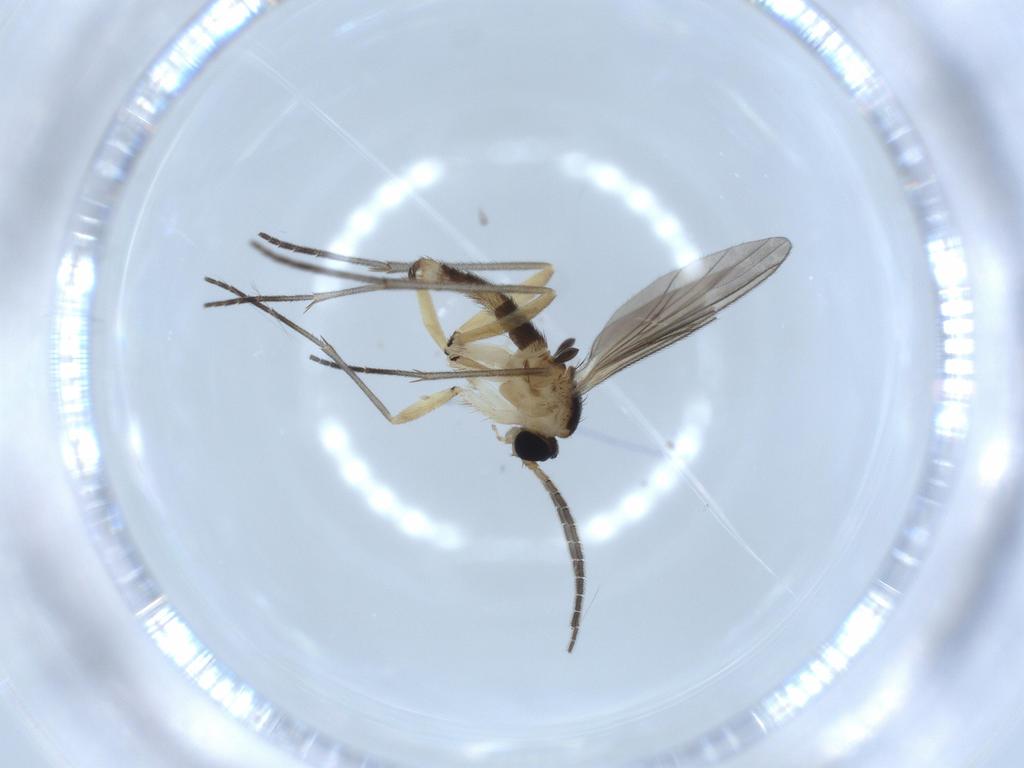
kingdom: Animalia
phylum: Arthropoda
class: Insecta
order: Diptera
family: Sciaridae
